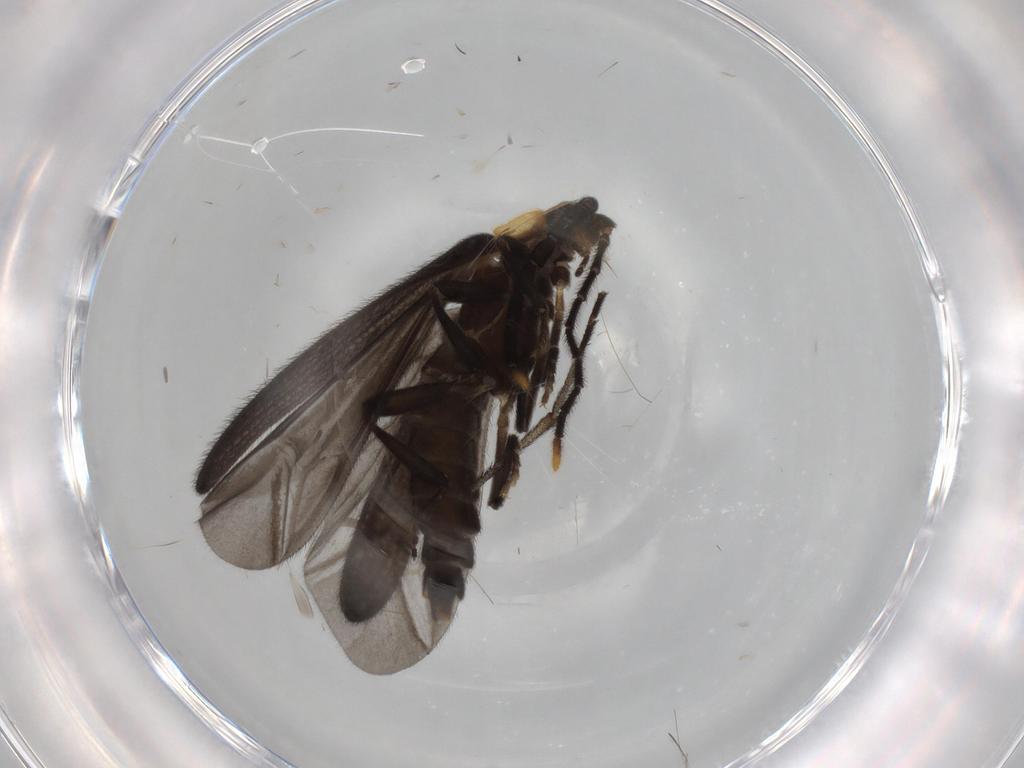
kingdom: Animalia
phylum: Arthropoda
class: Insecta
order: Coleoptera
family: Lycidae
